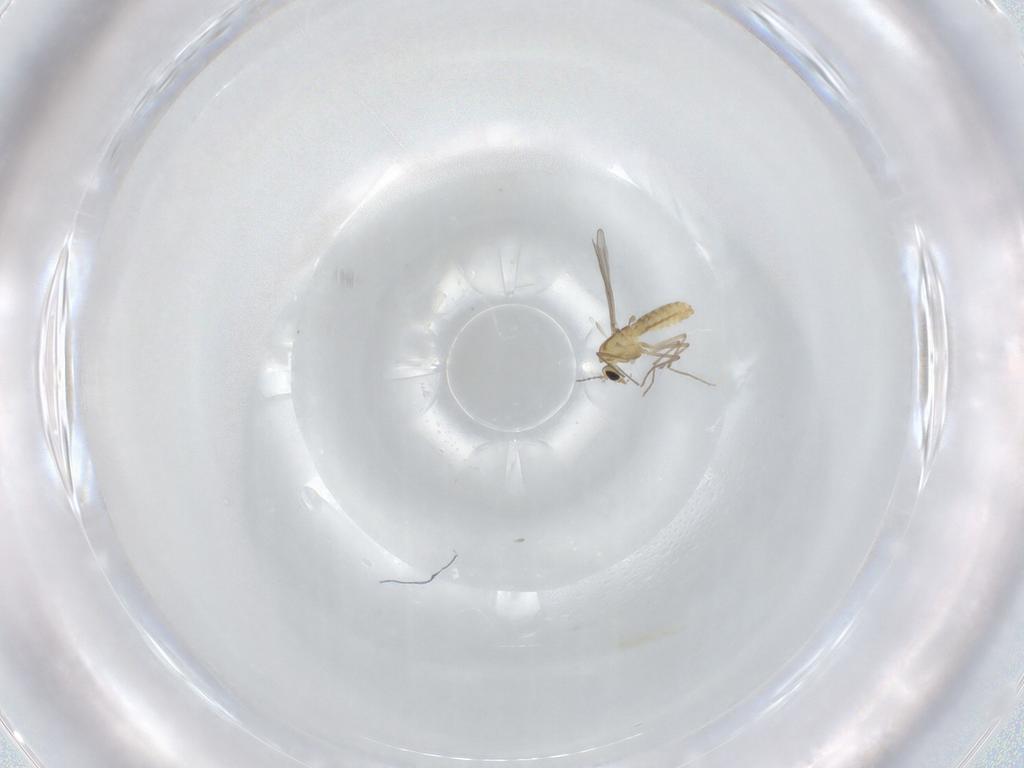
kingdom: Animalia
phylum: Arthropoda
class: Insecta
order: Diptera
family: Chironomidae
